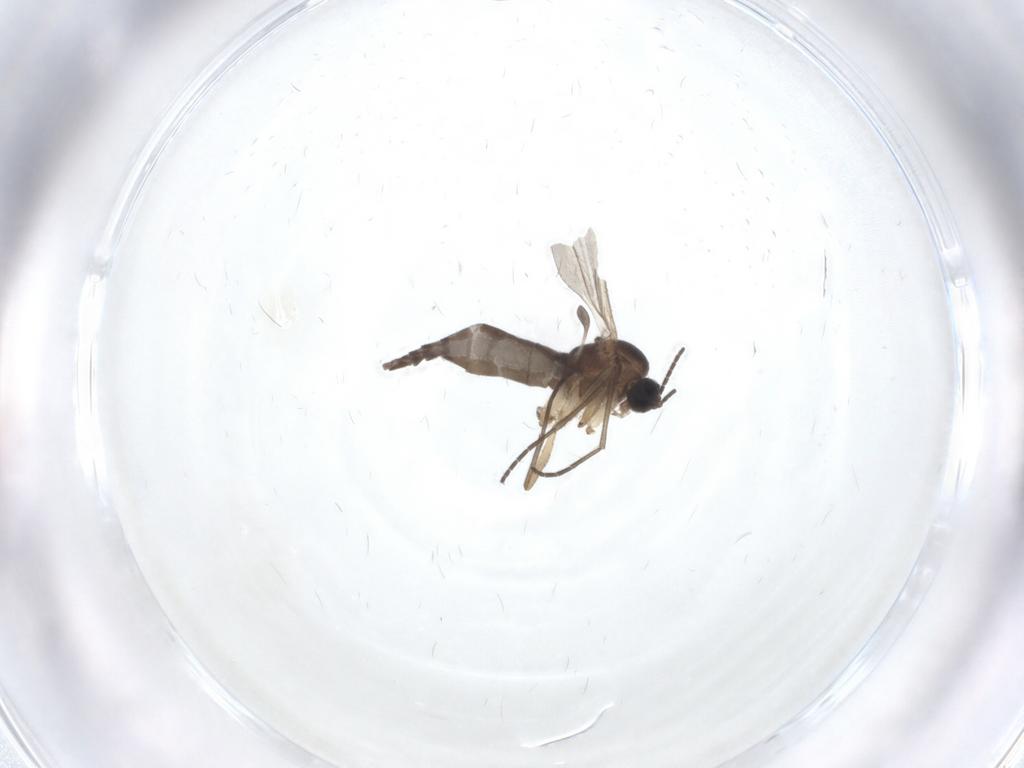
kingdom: Animalia
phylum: Arthropoda
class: Insecta
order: Diptera
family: Sciaridae
